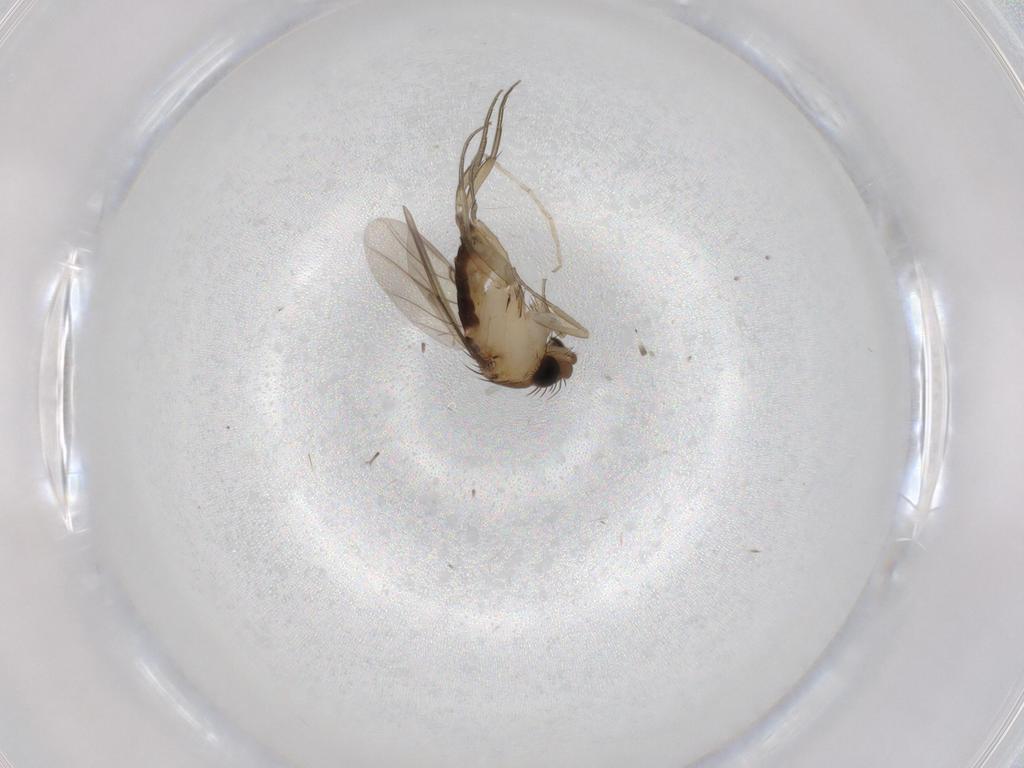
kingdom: Animalia
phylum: Arthropoda
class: Insecta
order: Diptera
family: Phoridae
